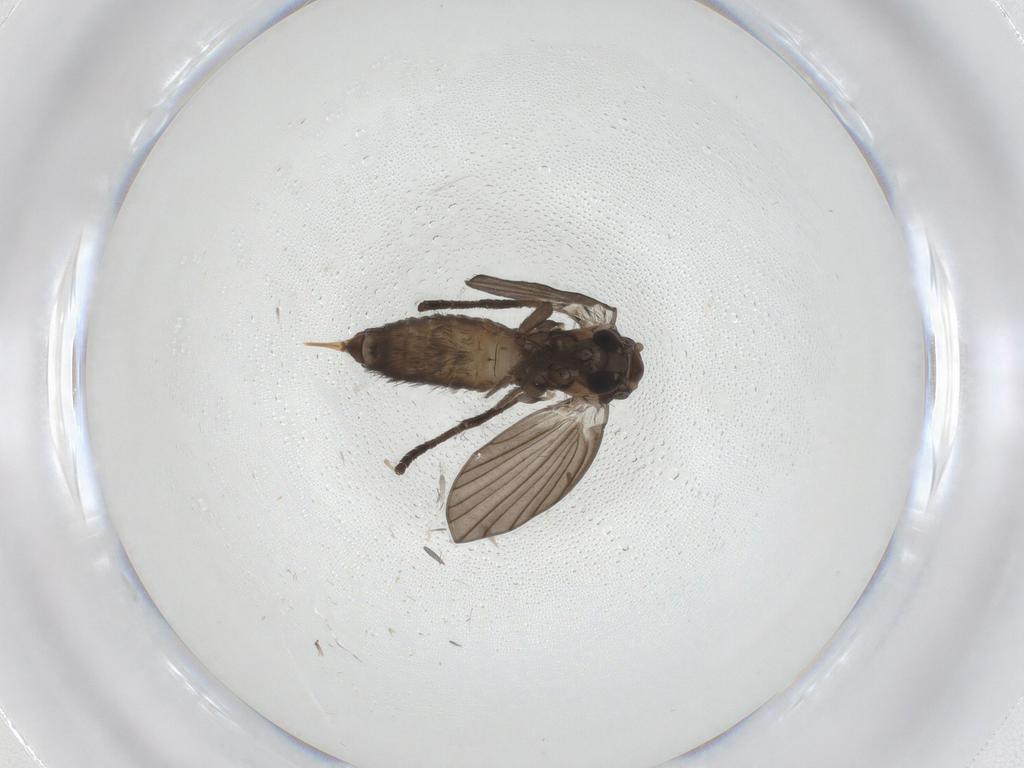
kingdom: Animalia
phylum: Arthropoda
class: Insecta
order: Diptera
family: Psychodidae
